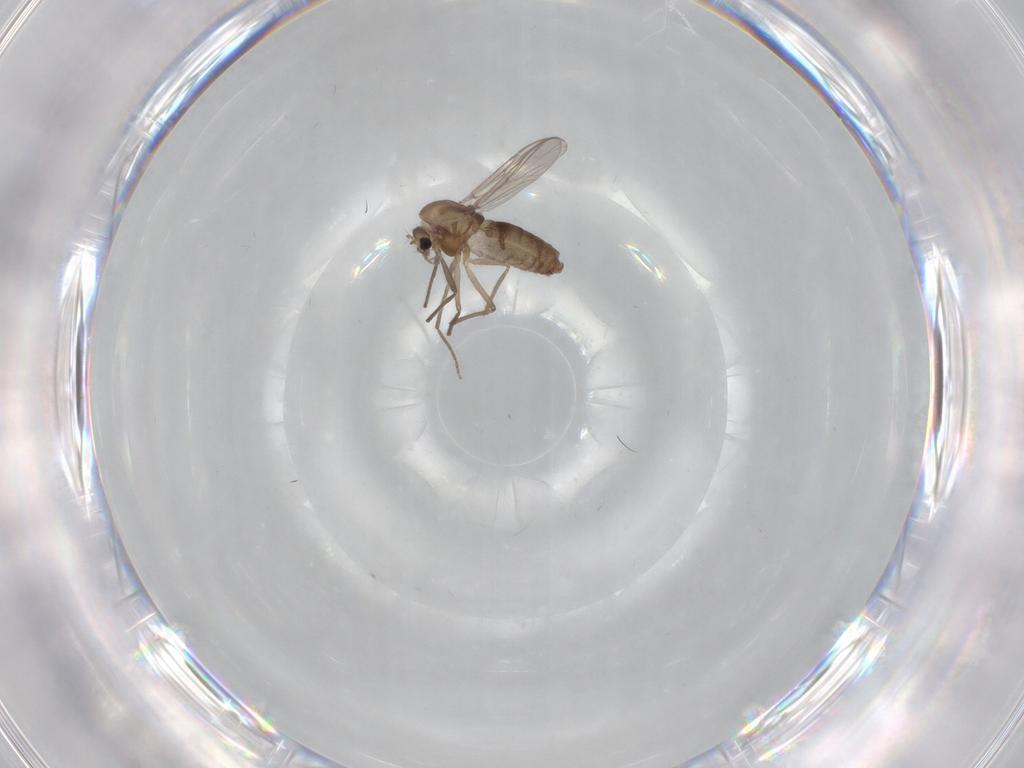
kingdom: Animalia
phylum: Arthropoda
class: Insecta
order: Diptera
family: Chironomidae
